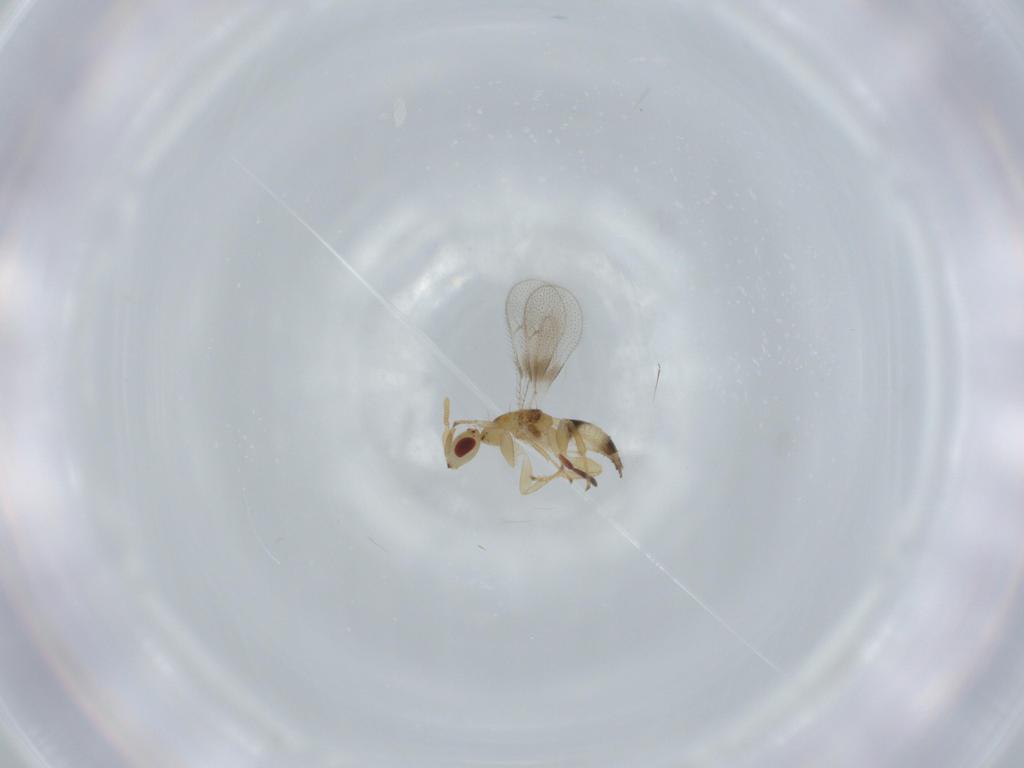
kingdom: Animalia
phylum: Arthropoda
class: Insecta
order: Hymenoptera
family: Torymidae
